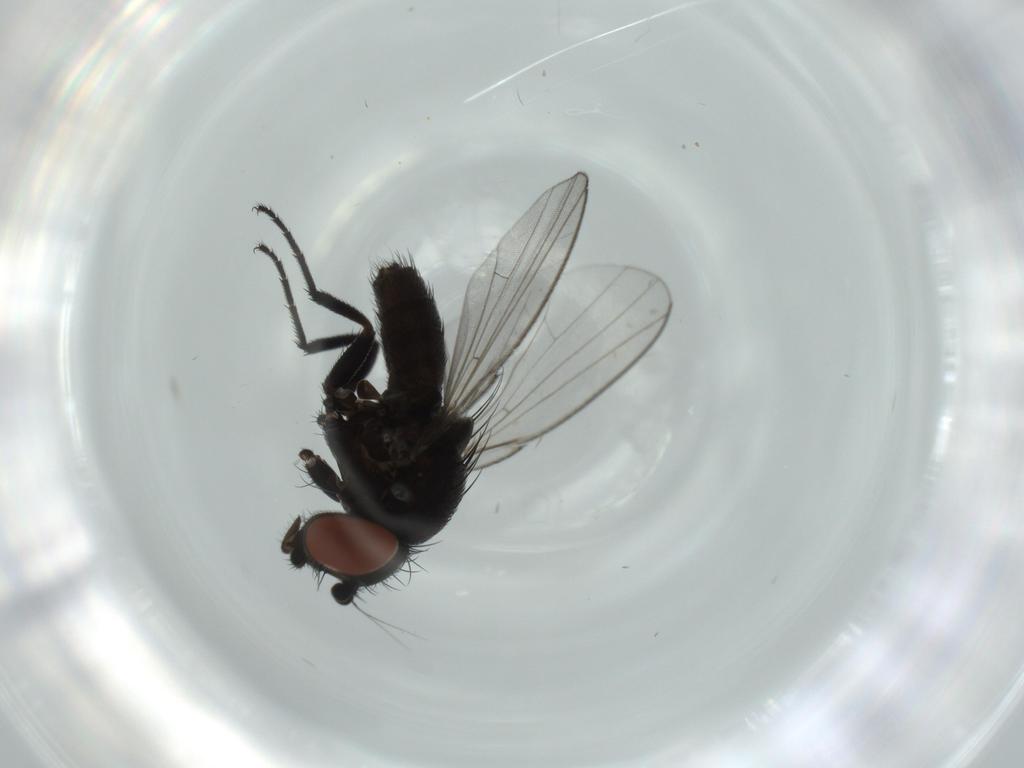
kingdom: Animalia
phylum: Arthropoda
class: Insecta
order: Diptera
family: Milichiidae
